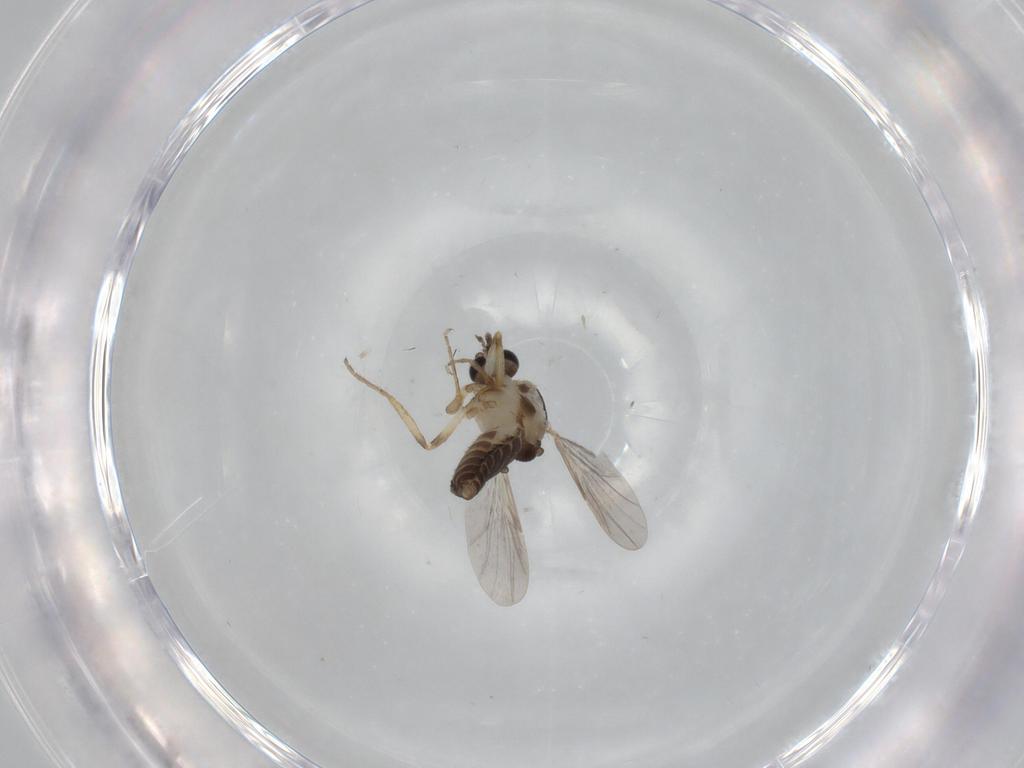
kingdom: Animalia
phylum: Arthropoda
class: Insecta
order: Diptera
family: Ceratopogonidae
